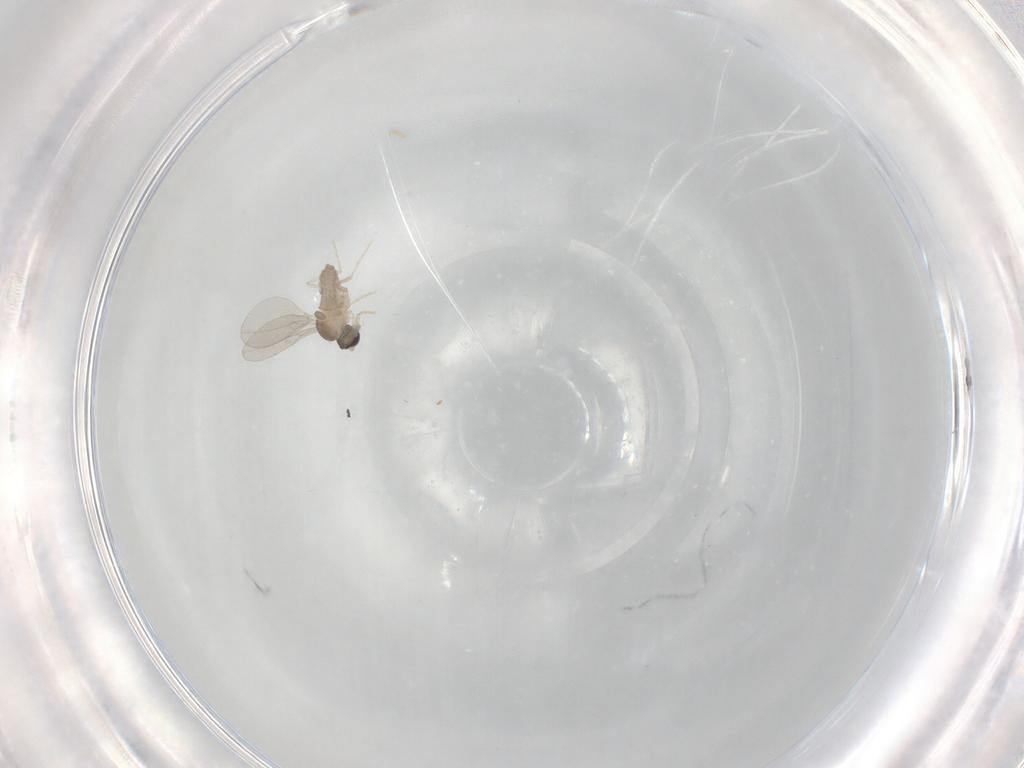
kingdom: Animalia
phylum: Arthropoda
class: Insecta
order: Diptera
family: Cecidomyiidae
